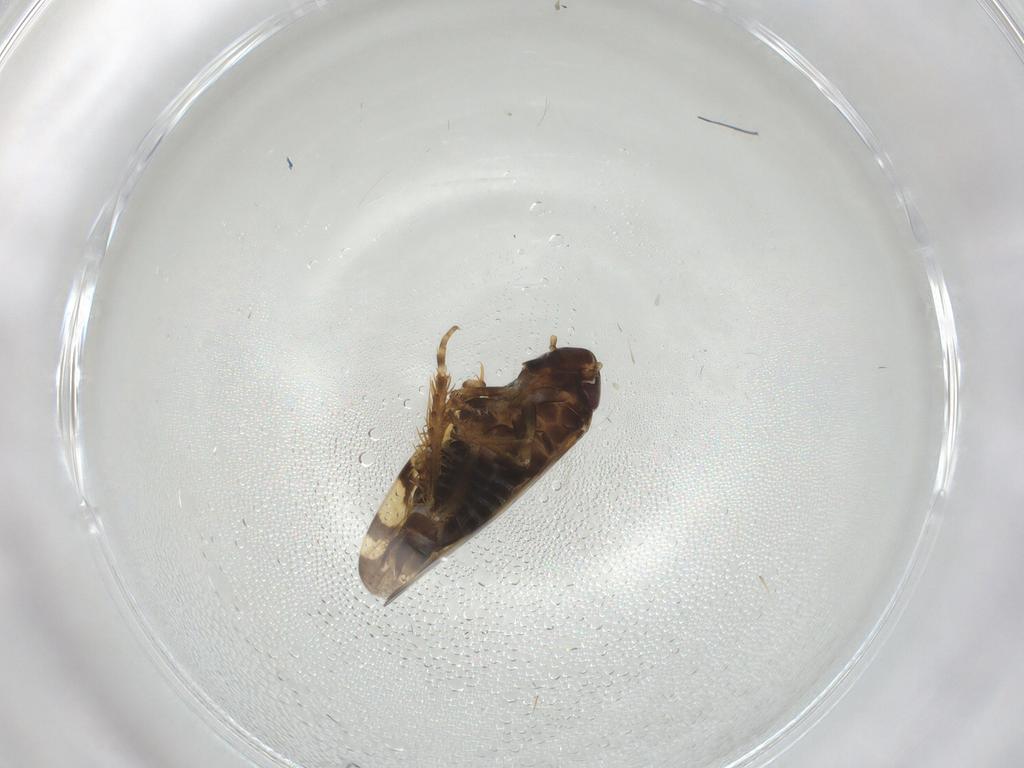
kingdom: Animalia
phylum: Arthropoda
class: Insecta
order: Hemiptera
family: Cicadellidae
